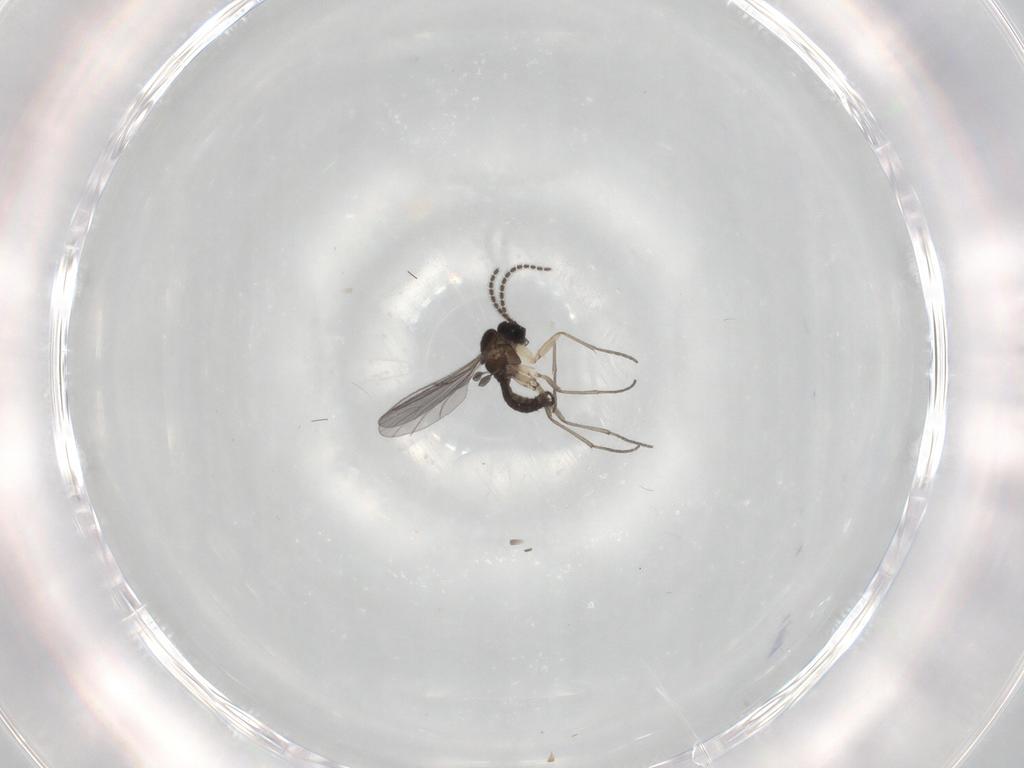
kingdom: Animalia
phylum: Arthropoda
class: Insecta
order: Diptera
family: Sciaridae
